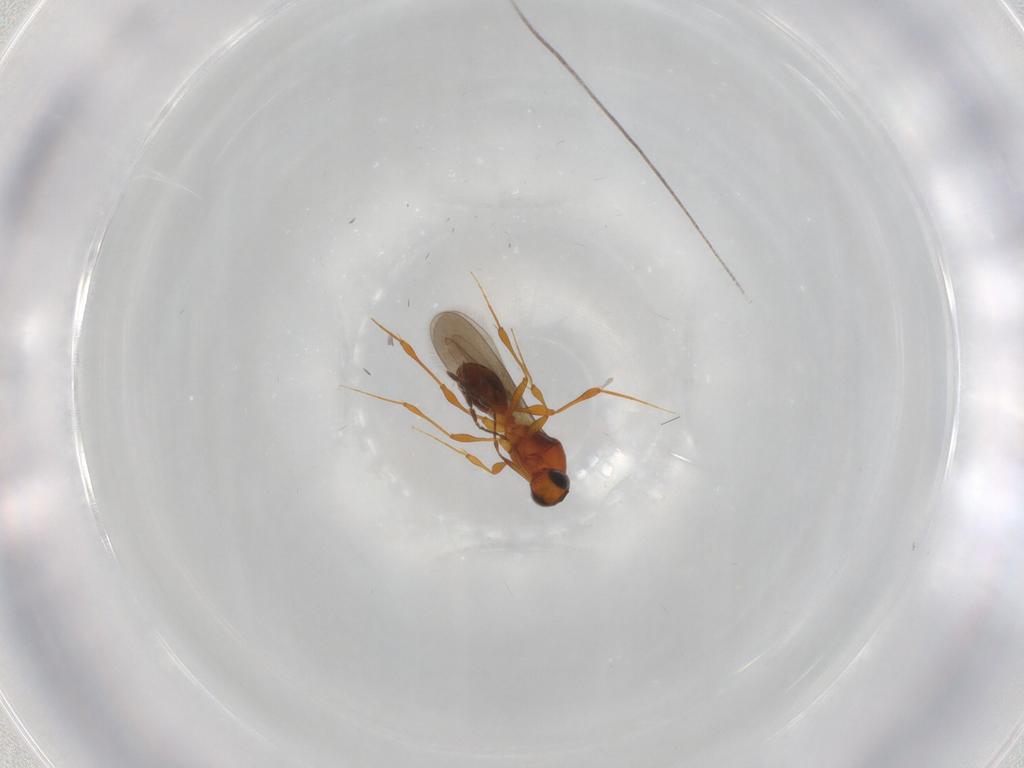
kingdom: Animalia
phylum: Arthropoda
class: Insecta
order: Hymenoptera
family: Platygastridae
